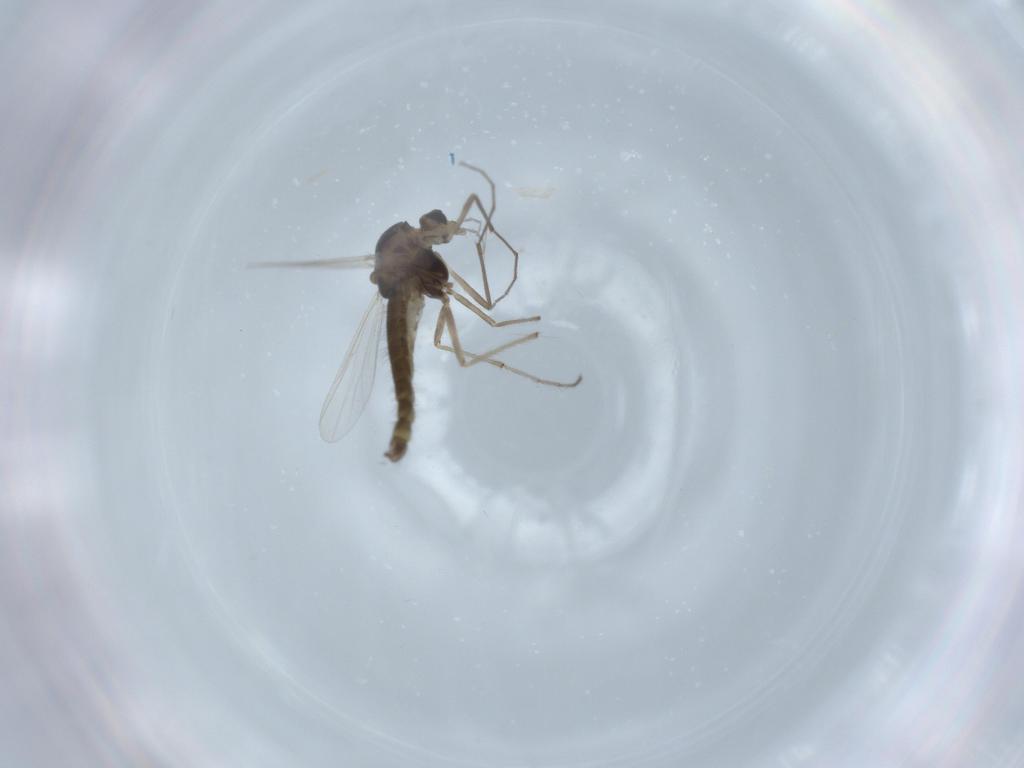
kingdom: Animalia
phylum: Arthropoda
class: Insecta
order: Diptera
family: Chironomidae
